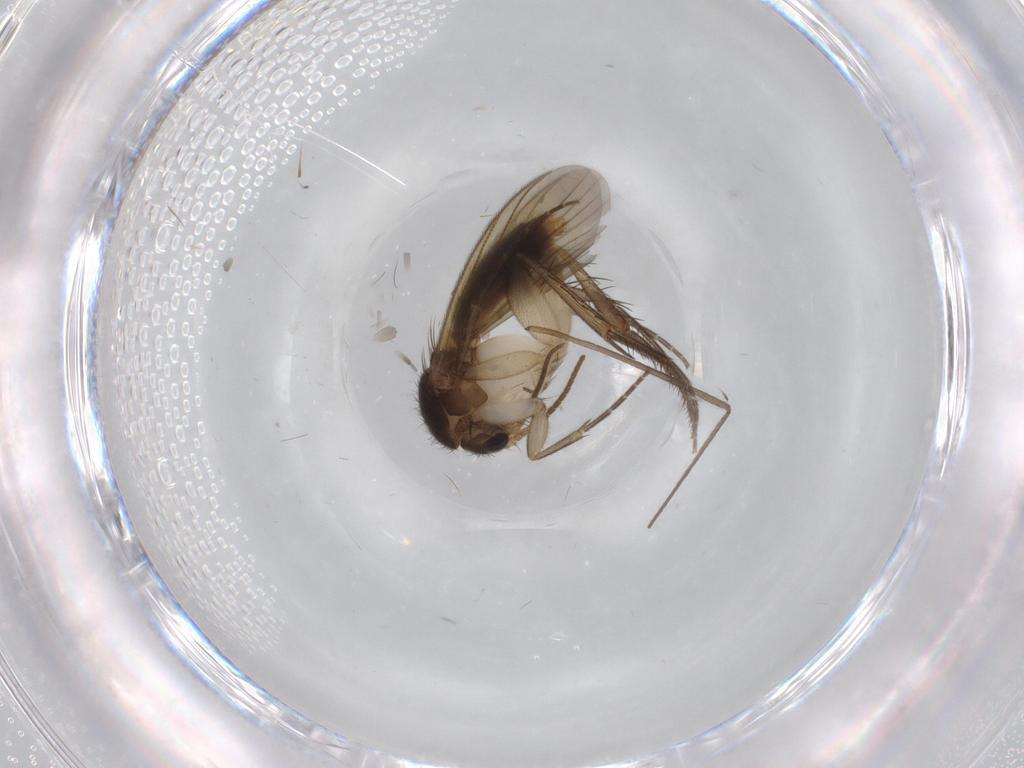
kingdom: Animalia
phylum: Arthropoda
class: Insecta
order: Diptera
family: Mycetophilidae
